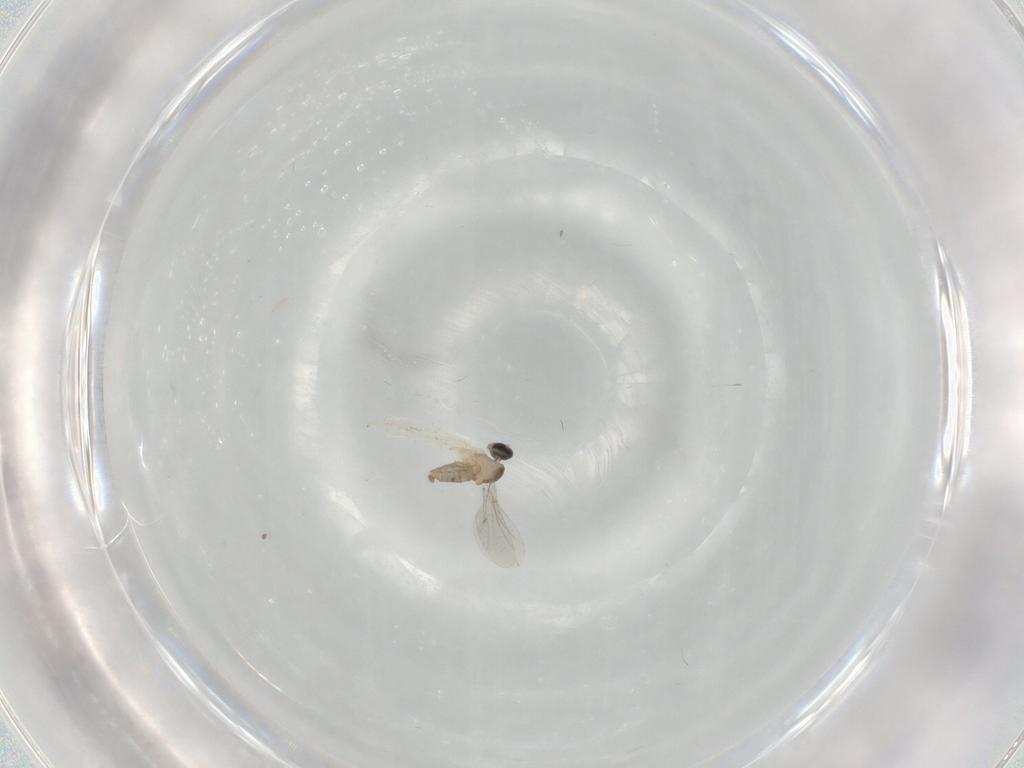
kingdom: Animalia
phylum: Arthropoda
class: Insecta
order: Diptera
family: Cecidomyiidae
